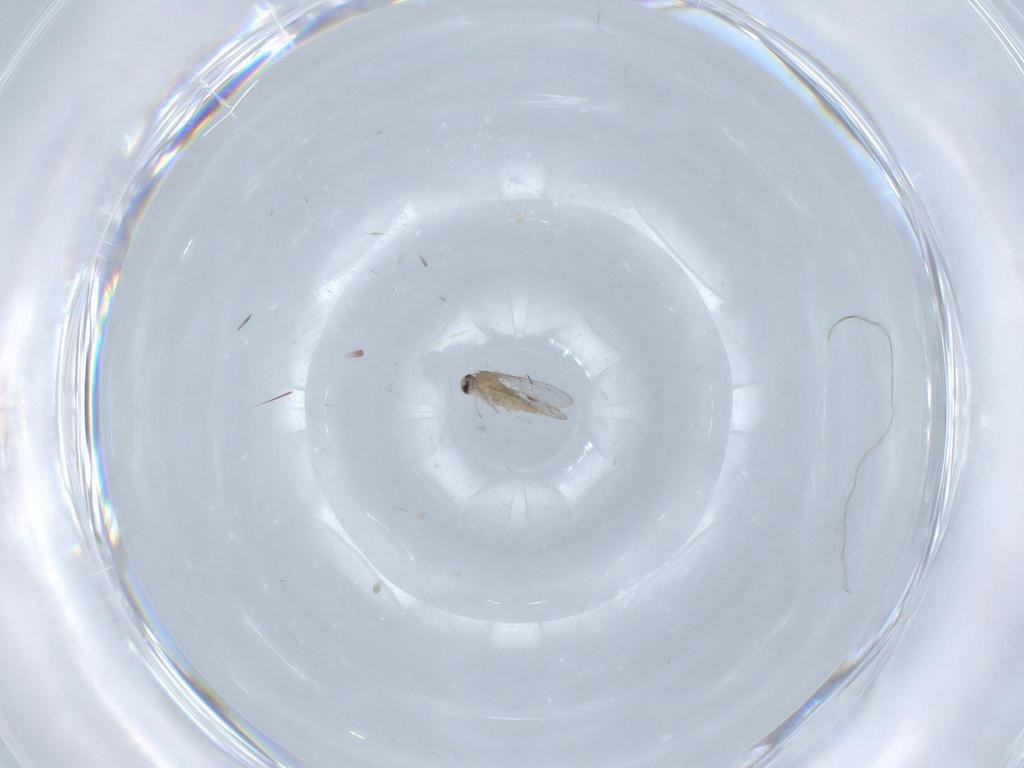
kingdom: Animalia
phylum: Arthropoda
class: Insecta
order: Diptera
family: Cecidomyiidae
